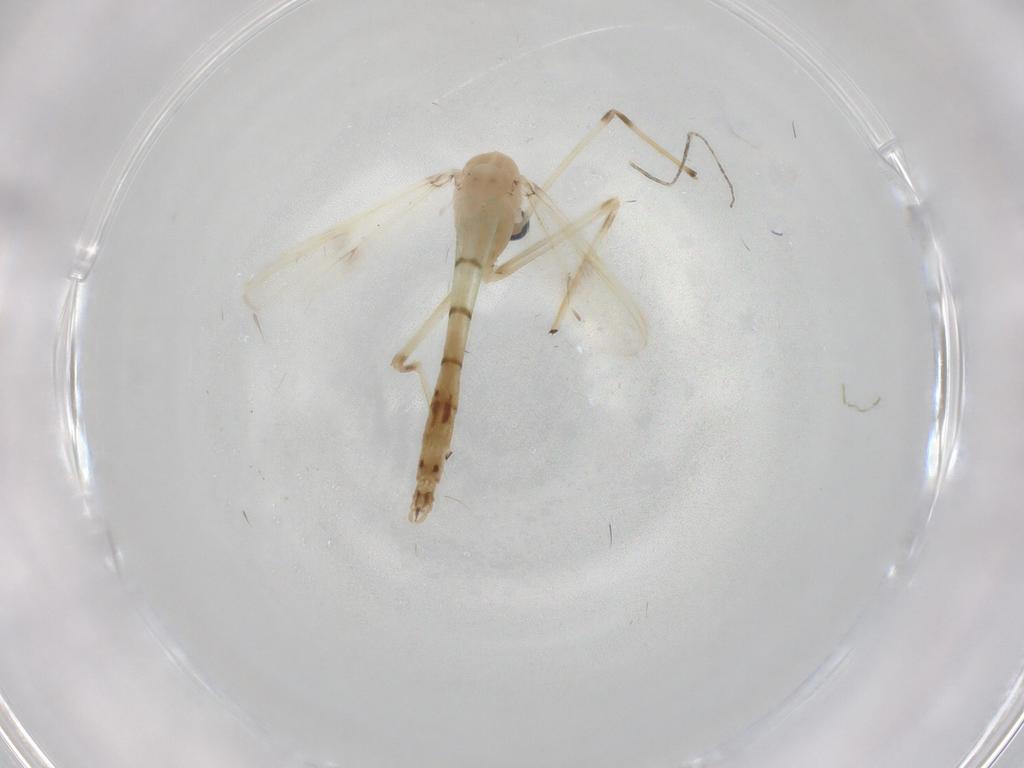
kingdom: Animalia
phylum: Arthropoda
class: Insecta
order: Diptera
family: Chironomidae
